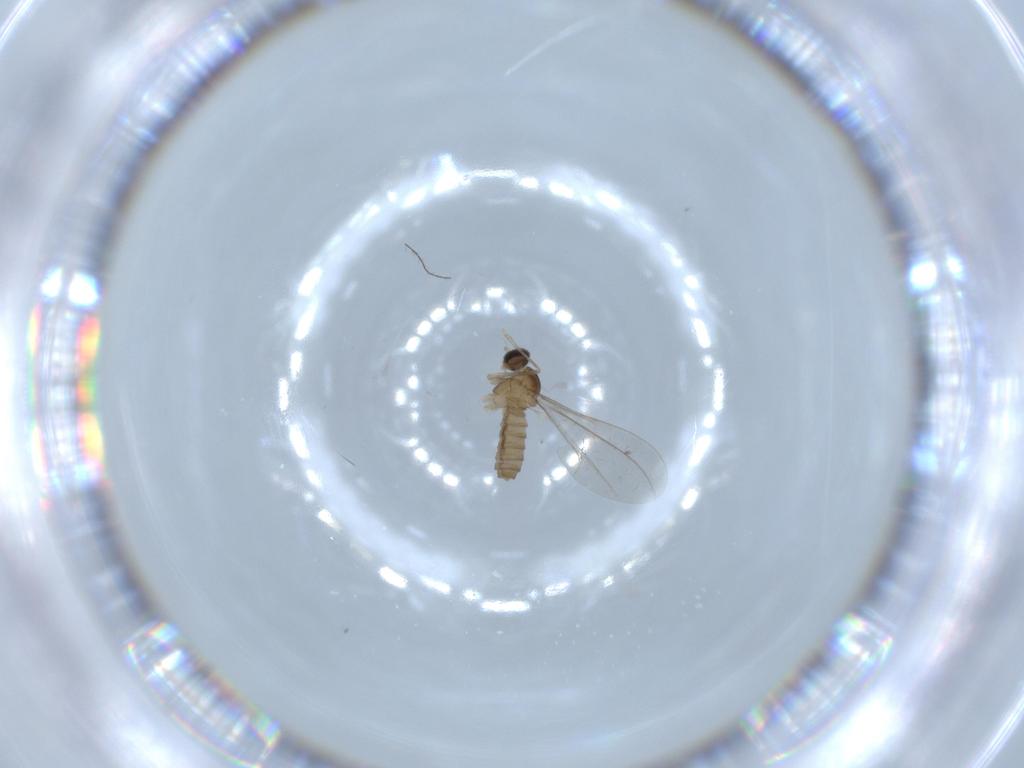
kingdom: Animalia
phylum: Arthropoda
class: Insecta
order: Diptera
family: Cecidomyiidae
